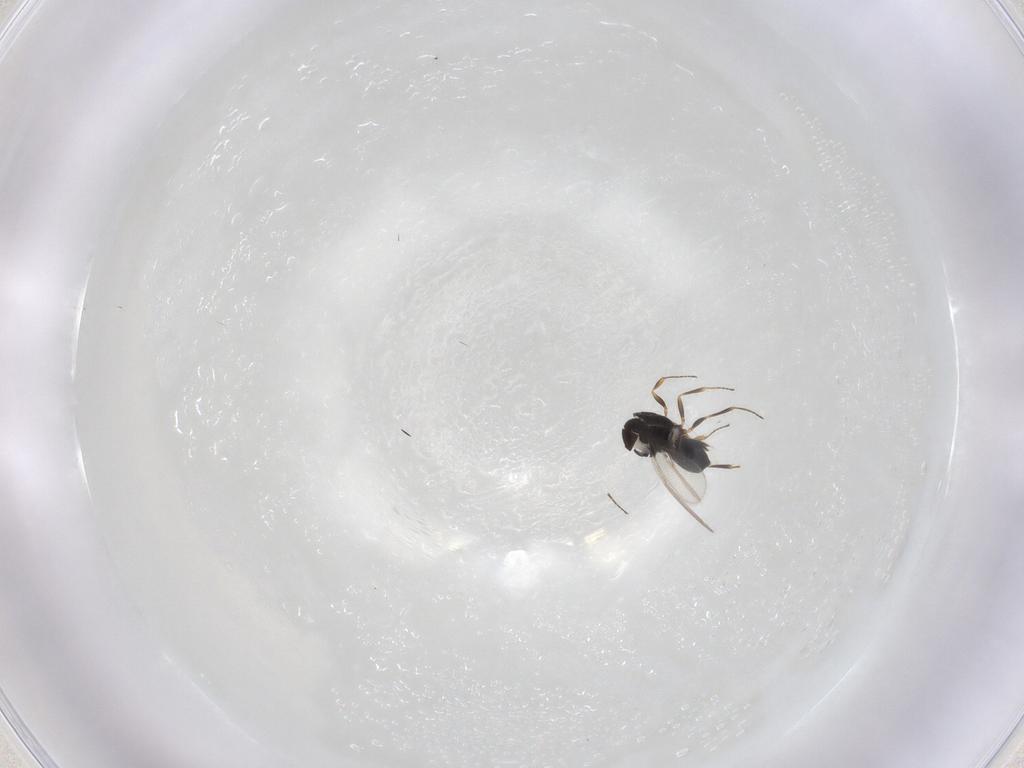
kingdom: Animalia
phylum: Arthropoda
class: Insecta
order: Hymenoptera
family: Scelionidae
